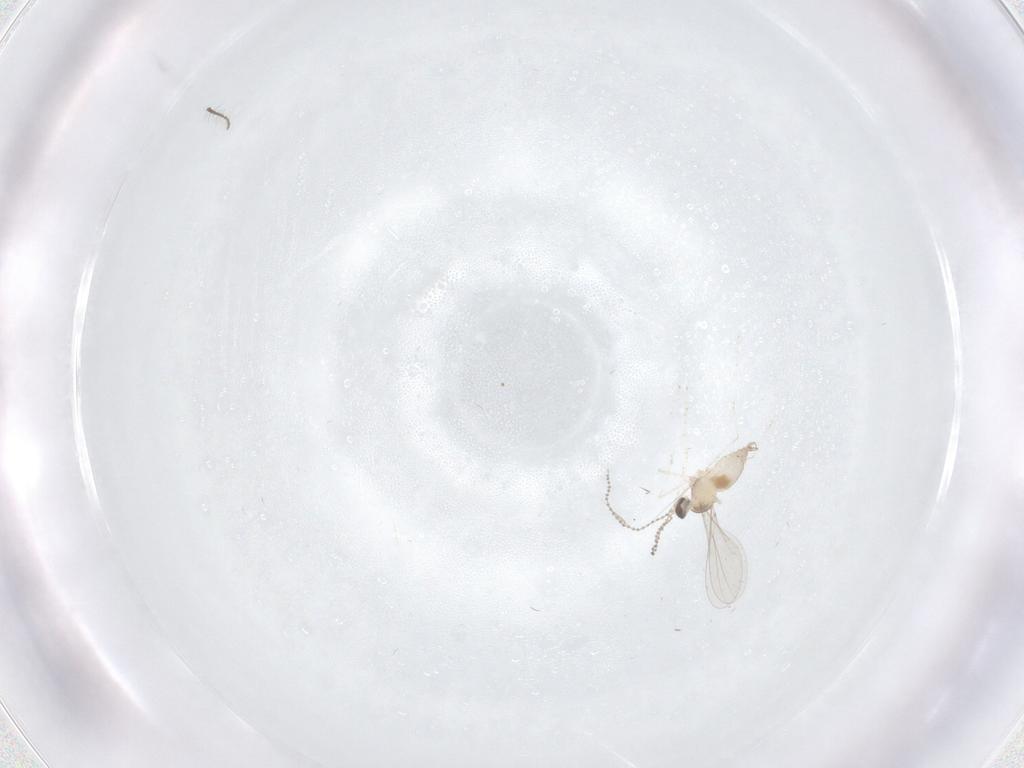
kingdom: Animalia
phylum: Arthropoda
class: Insecta
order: Diptera
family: Cecidomyiidae
